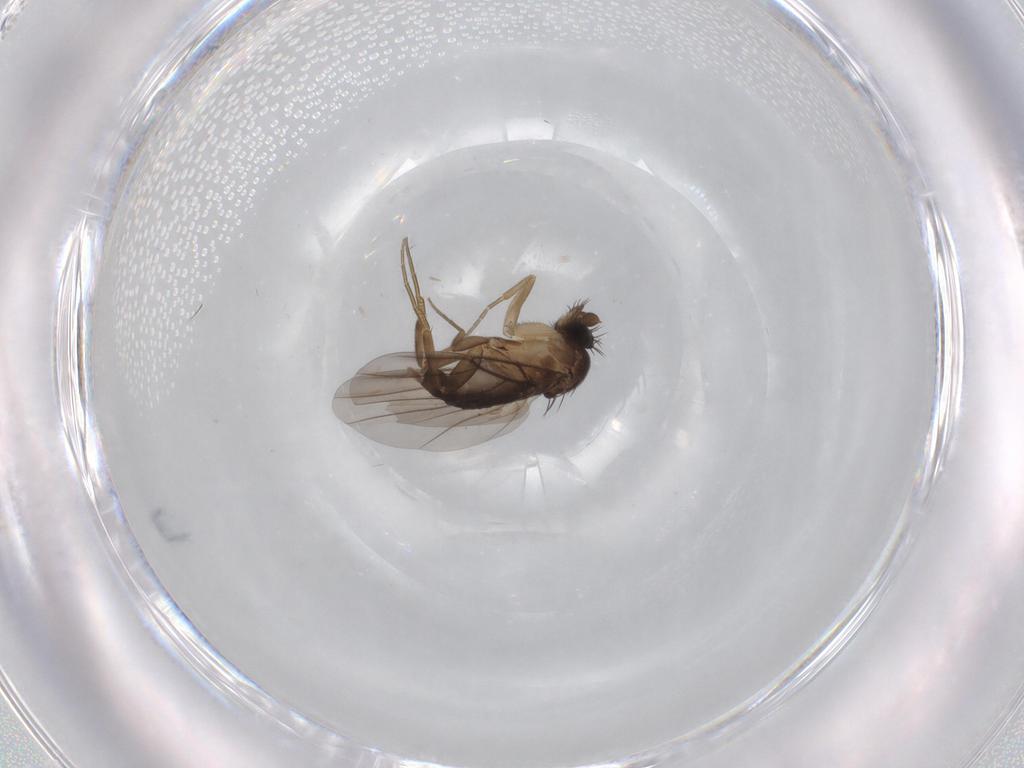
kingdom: Animalia
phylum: Arthropoda
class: Insecta
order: Diptera
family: Phoridae
